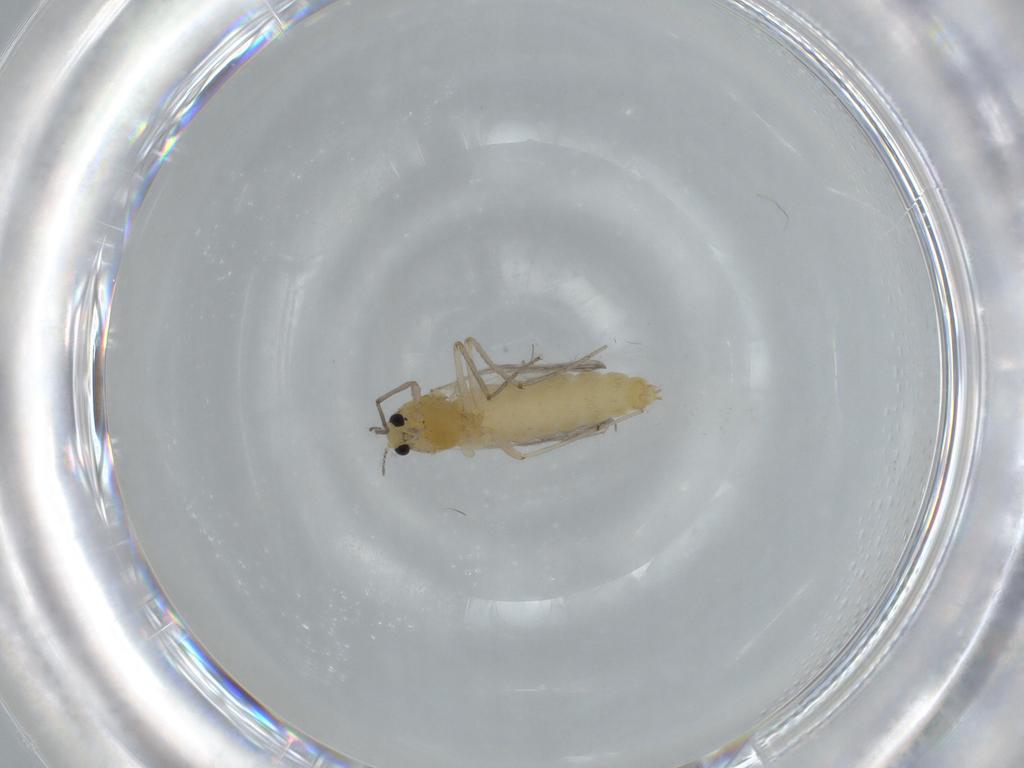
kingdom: Animalia
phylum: Arthropoda
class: Insecta
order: Diptera
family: Chironomidae
